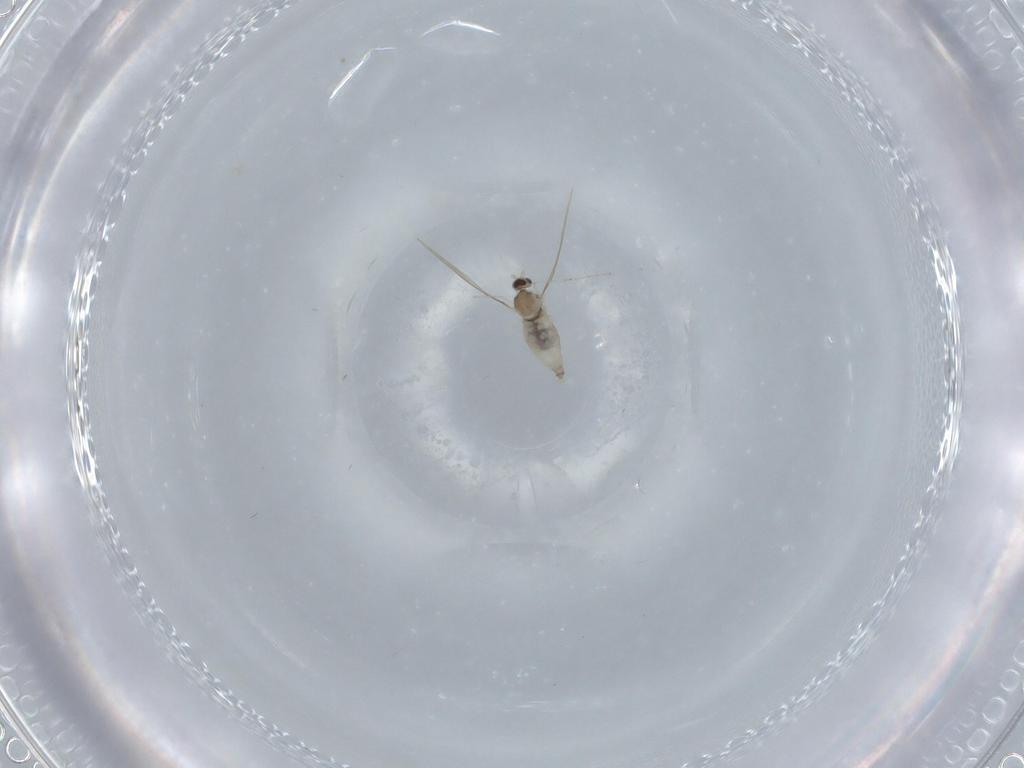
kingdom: Animalia
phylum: Arthropoda
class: Insecta
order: Diptera
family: Cecidomyiidae
